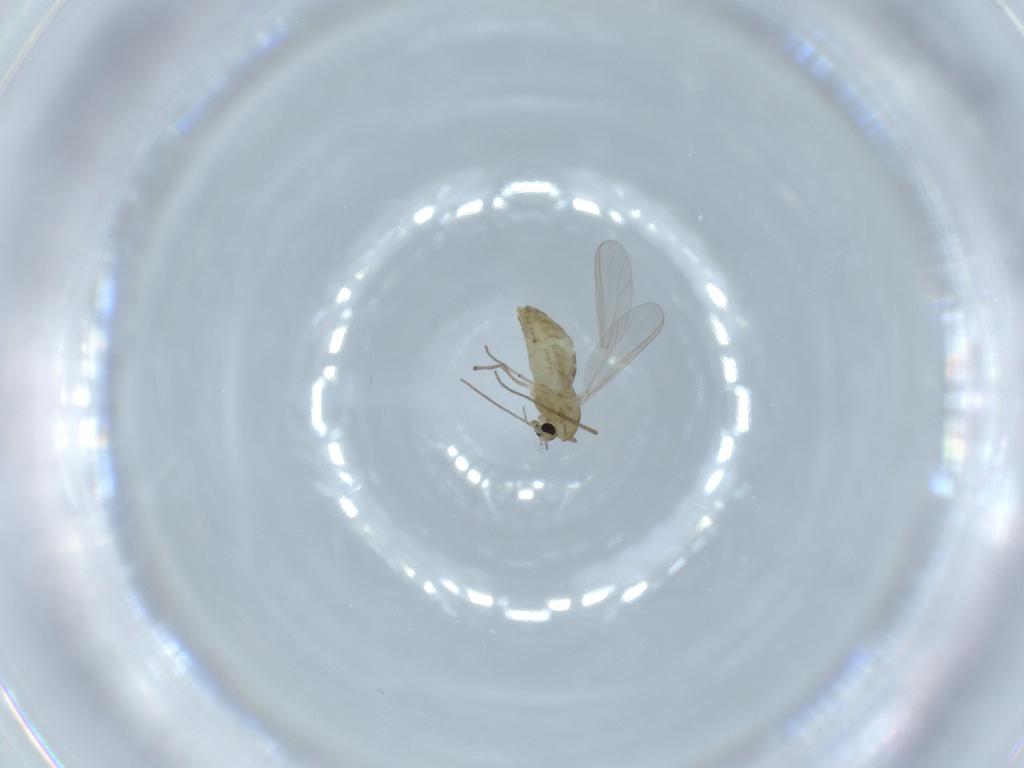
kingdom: Animalia
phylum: Arthropoda
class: Insecta
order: Diptera
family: Chironomidae
